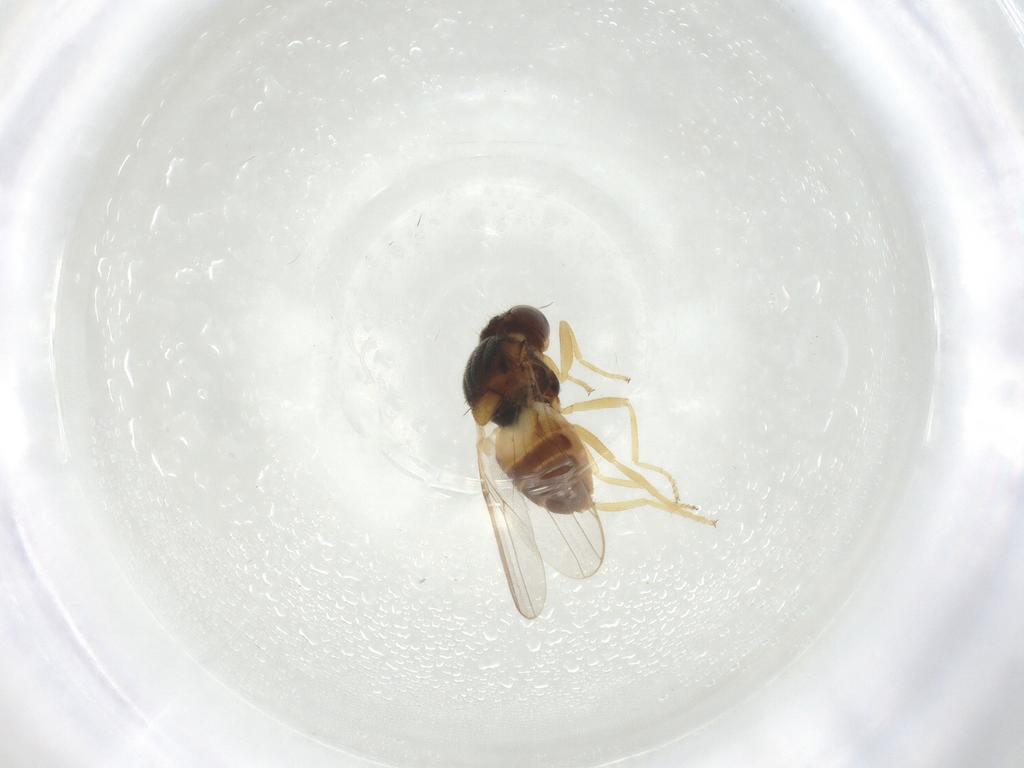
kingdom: Animalia
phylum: Arthropoda
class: Insecta
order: Diptera
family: Chloropidae
